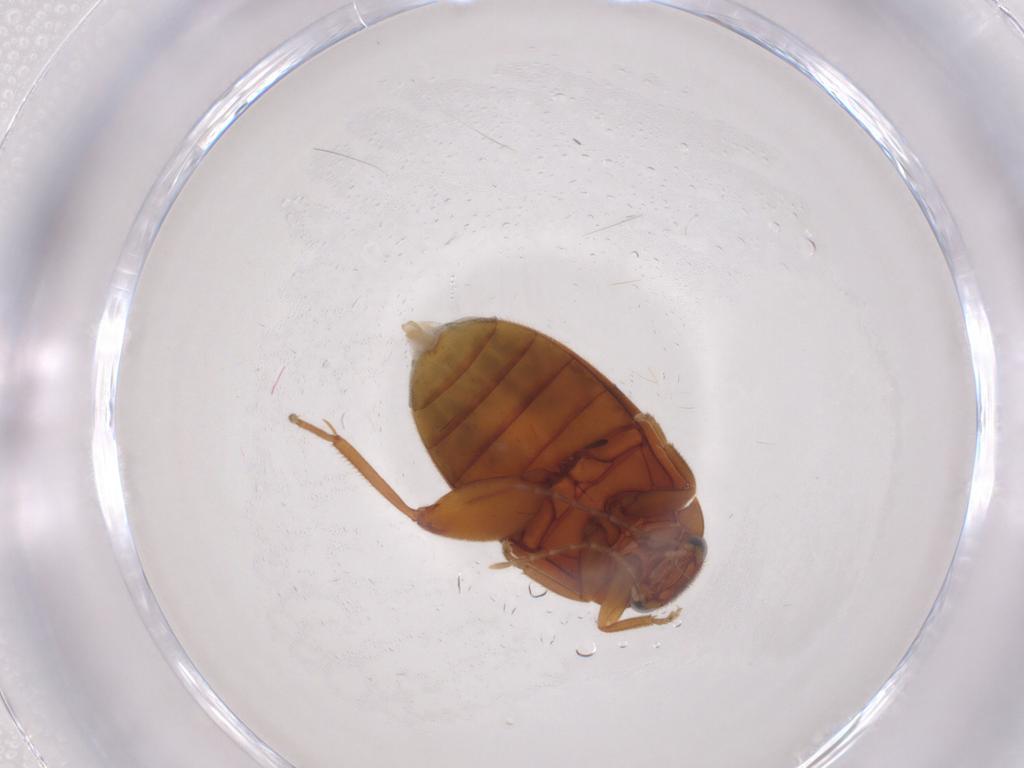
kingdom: Animalia
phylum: Arthropoda
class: Insecta
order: Coleoptera
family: Scirtidae
